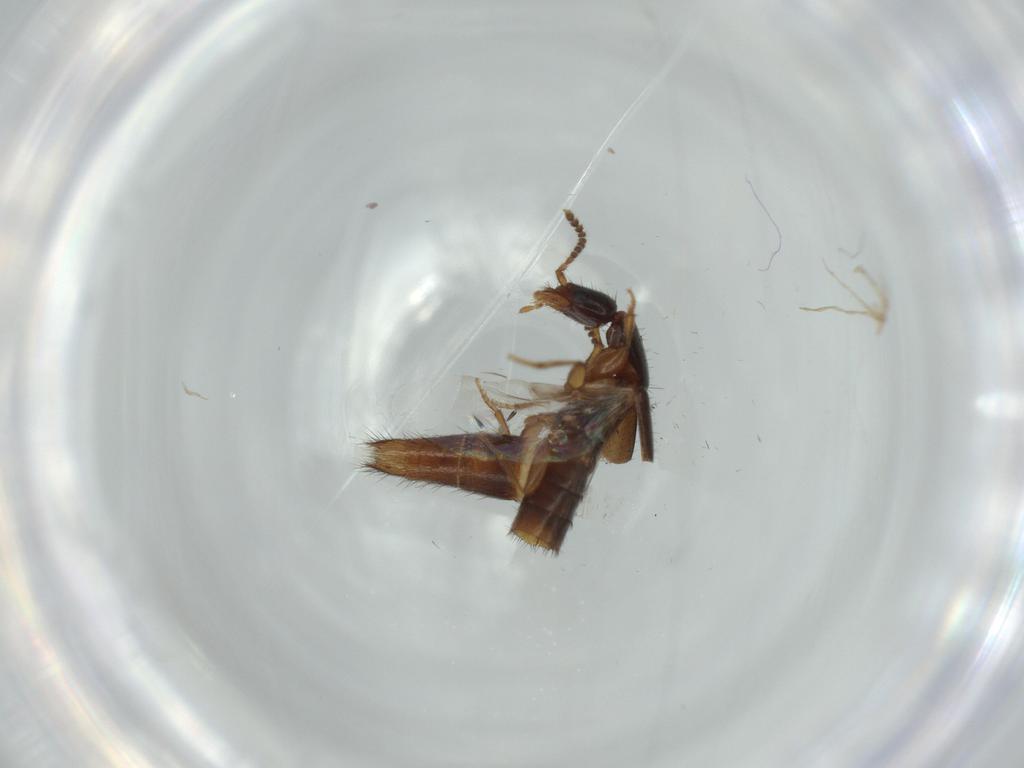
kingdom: Animalia
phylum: Arthropoda
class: Insecta
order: Coleoptera
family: Staphylinidae
